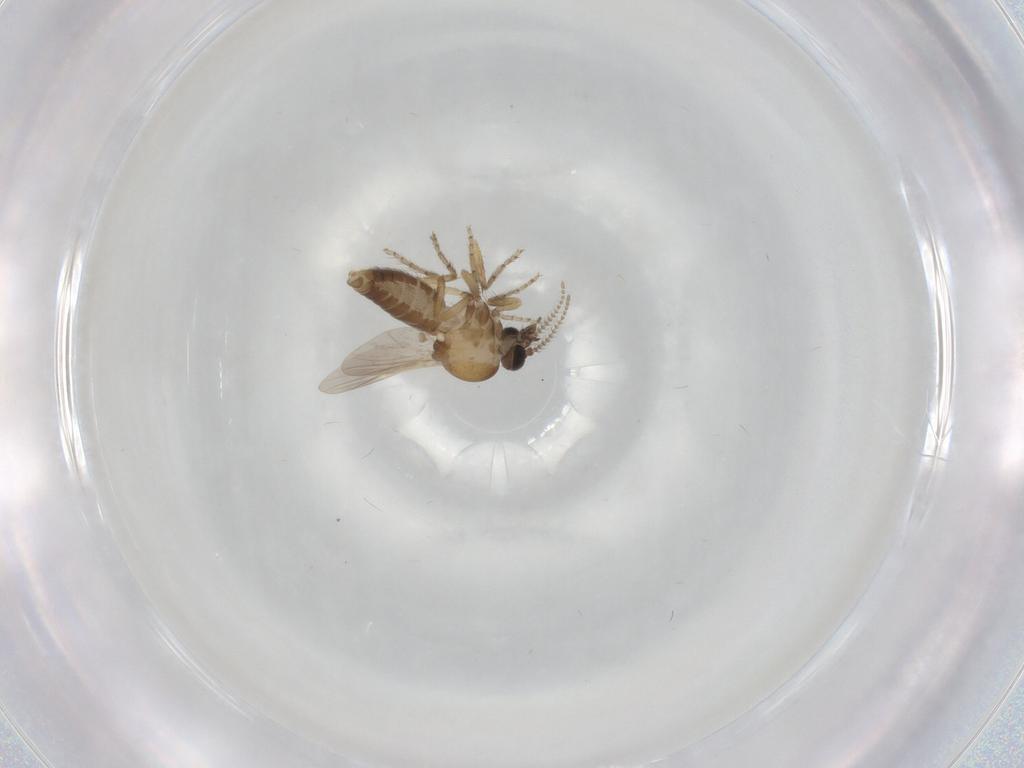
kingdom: Animalia
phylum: Arthropoda
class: Insecta
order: Diptera
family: Ceratopogonidae
